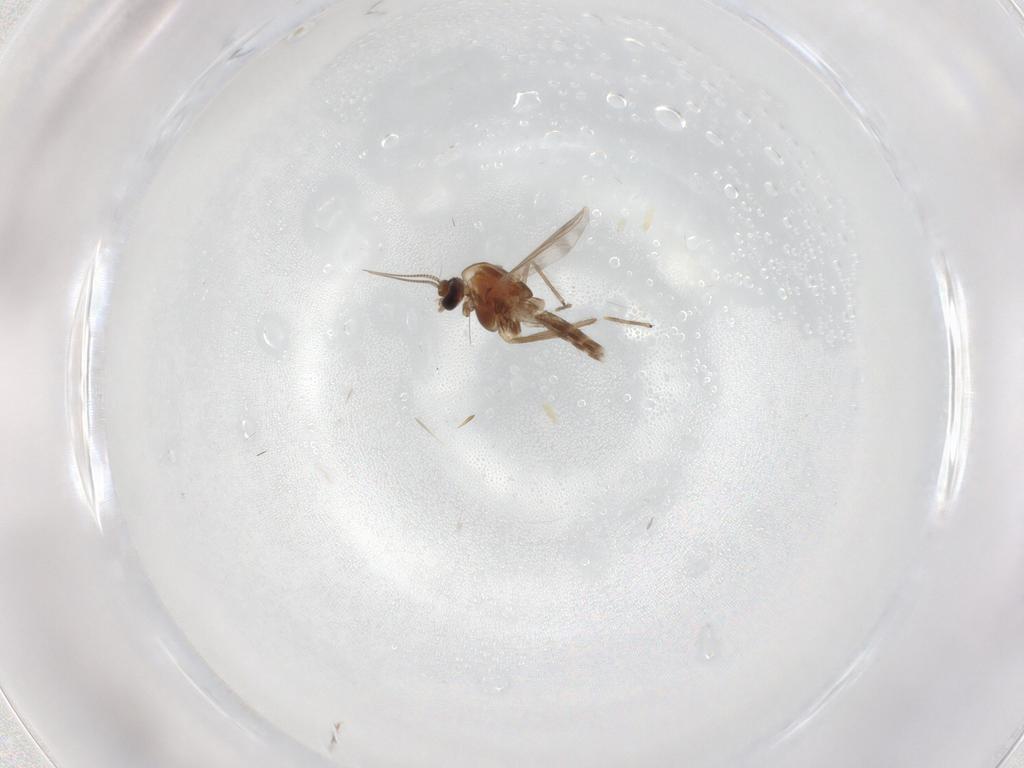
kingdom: Animalia
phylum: Arthropoda
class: Insecta
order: Diptera
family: Chironomidae
